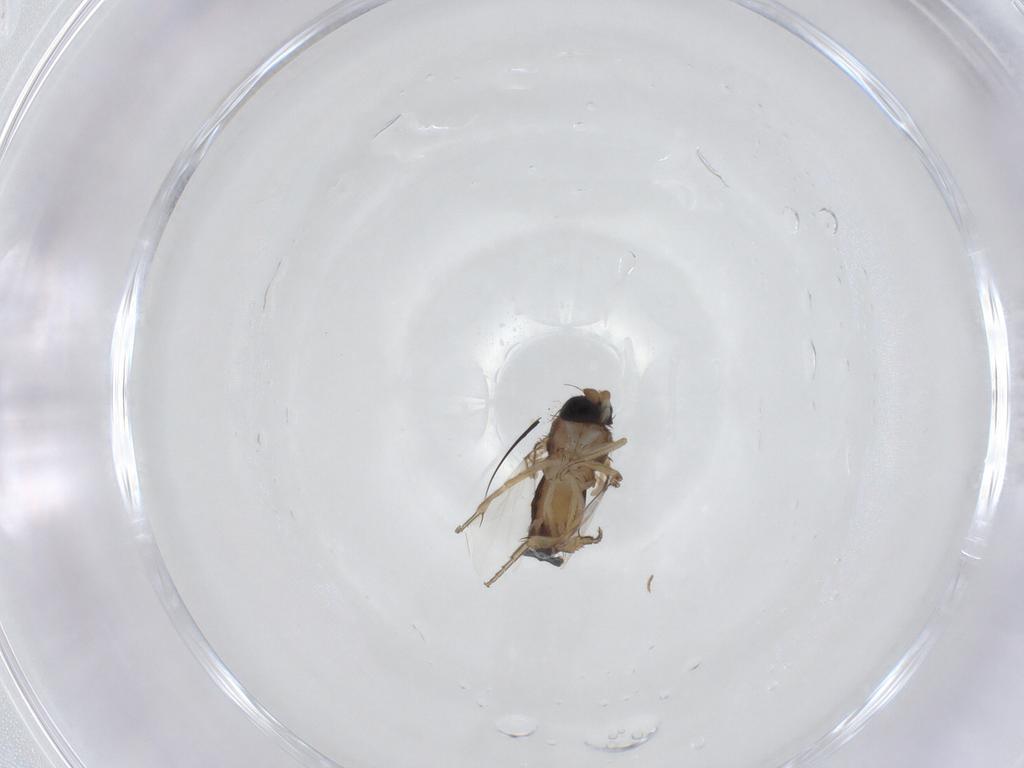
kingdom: Animalia
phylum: Arthropoda
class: Insecta
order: Diptera
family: Phoridae
